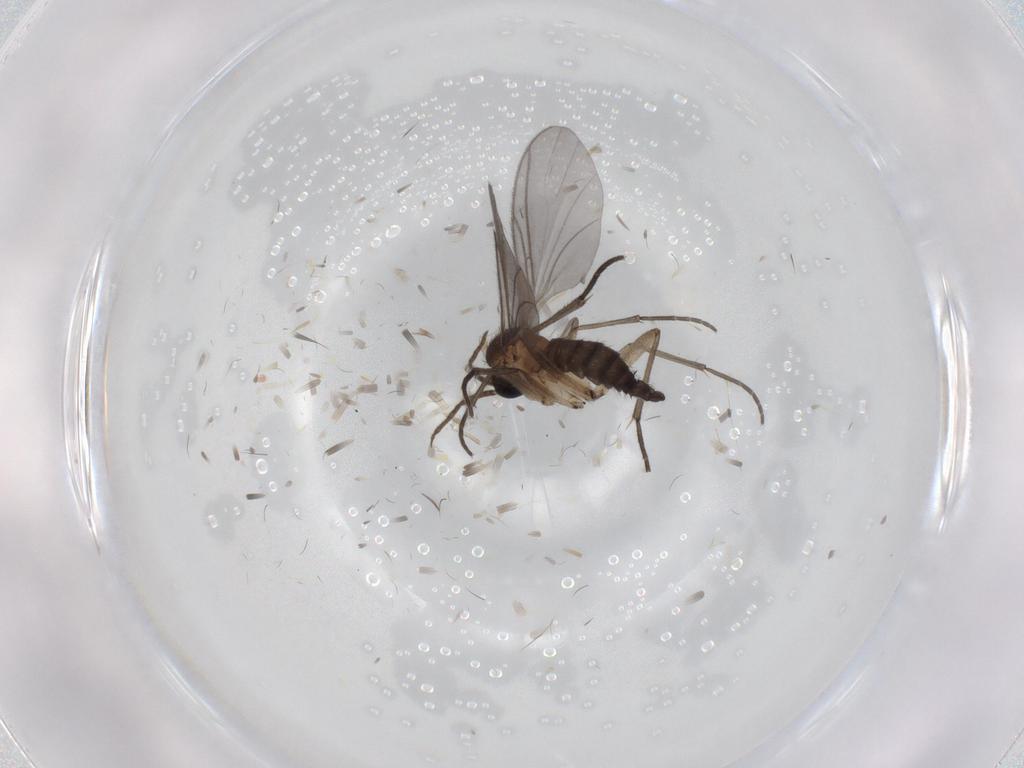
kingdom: Animalia
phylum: Arthropoda
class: Insecta
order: Diptera
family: Sciaridae
